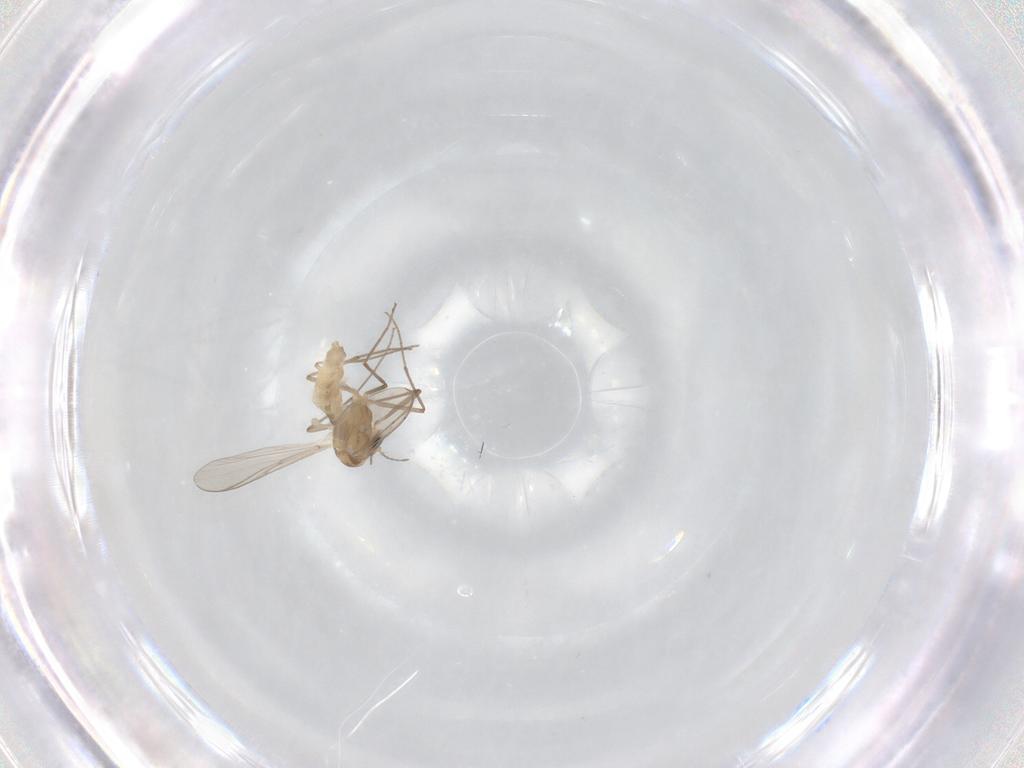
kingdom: Animalia
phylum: Arthropoda
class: Insecta
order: Diptera
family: Chironomidae
